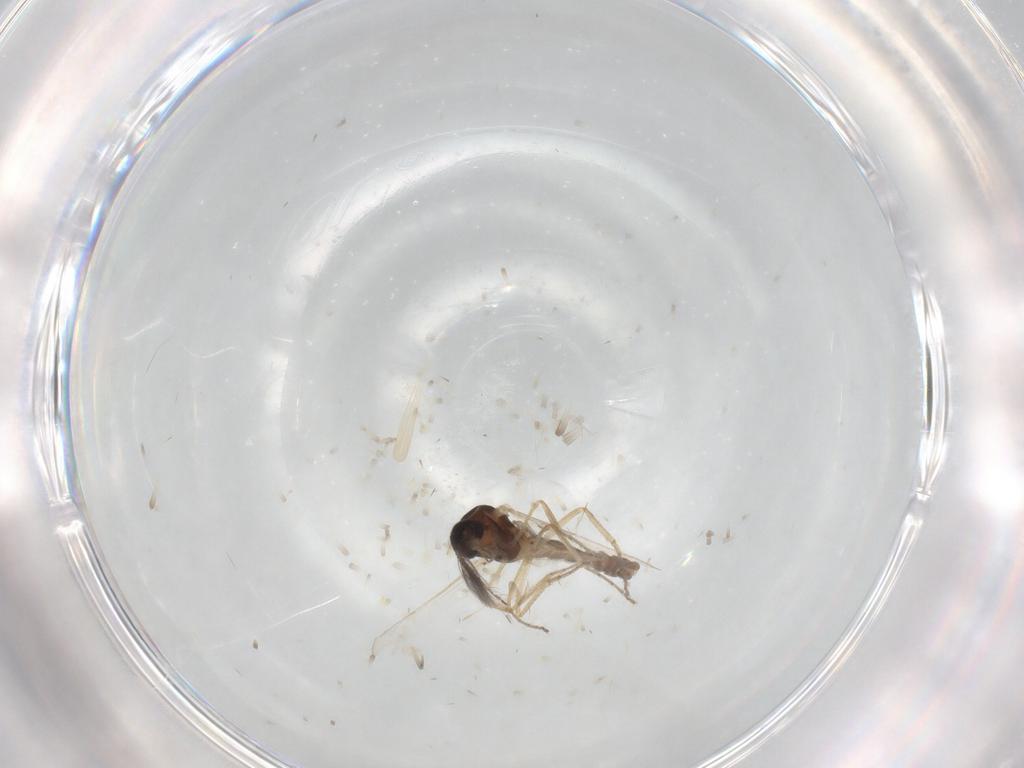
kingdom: Animalia
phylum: Arthropoda
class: Insecta
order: Diptera
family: Ceratopogonidae
